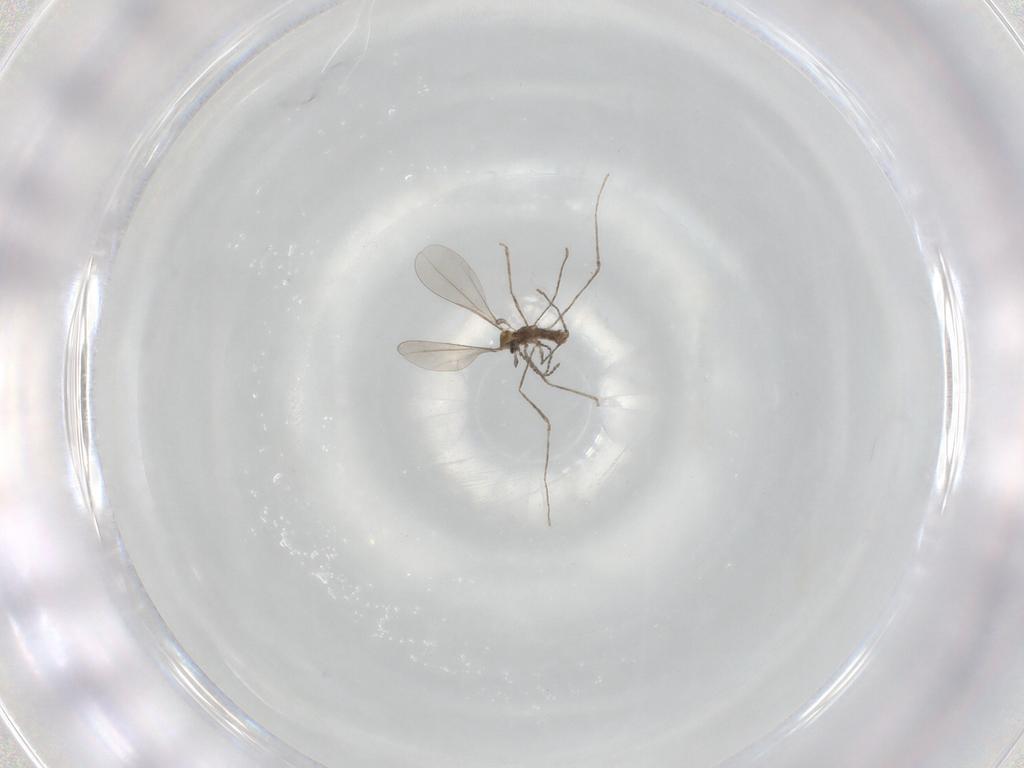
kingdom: Animalia
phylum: Arthropoda
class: Insecta
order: Diptera
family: Cecidomyiidae
